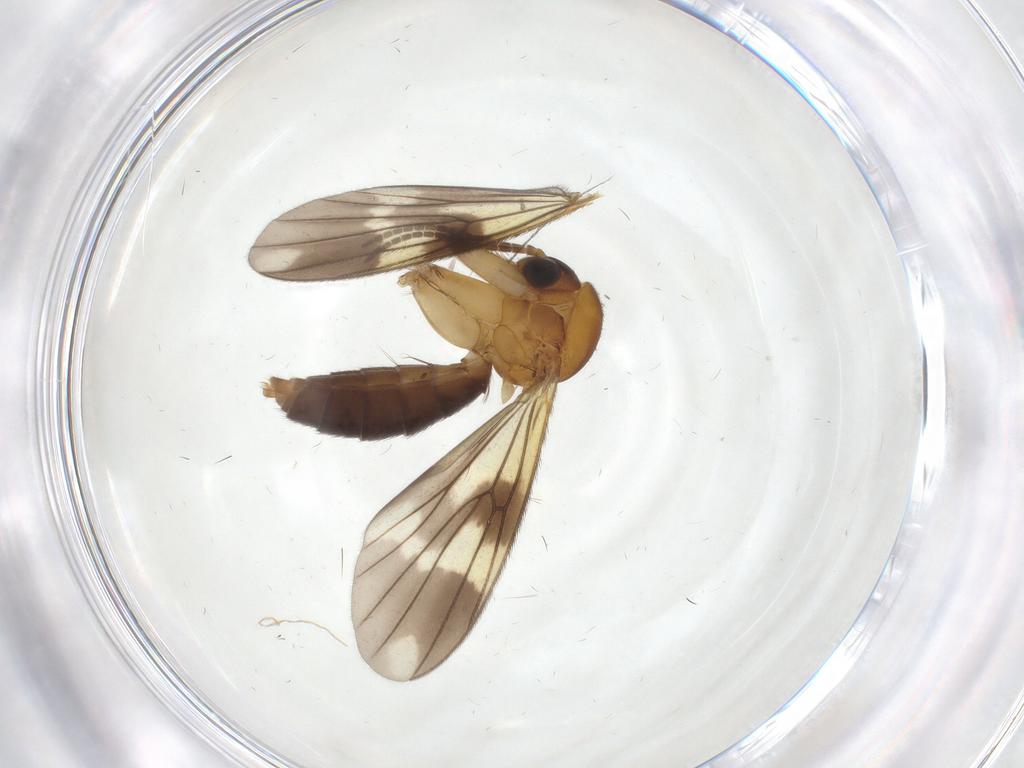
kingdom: Animalia
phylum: Arthropoda
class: Insecta
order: Diptera
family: Mycetophilidae
